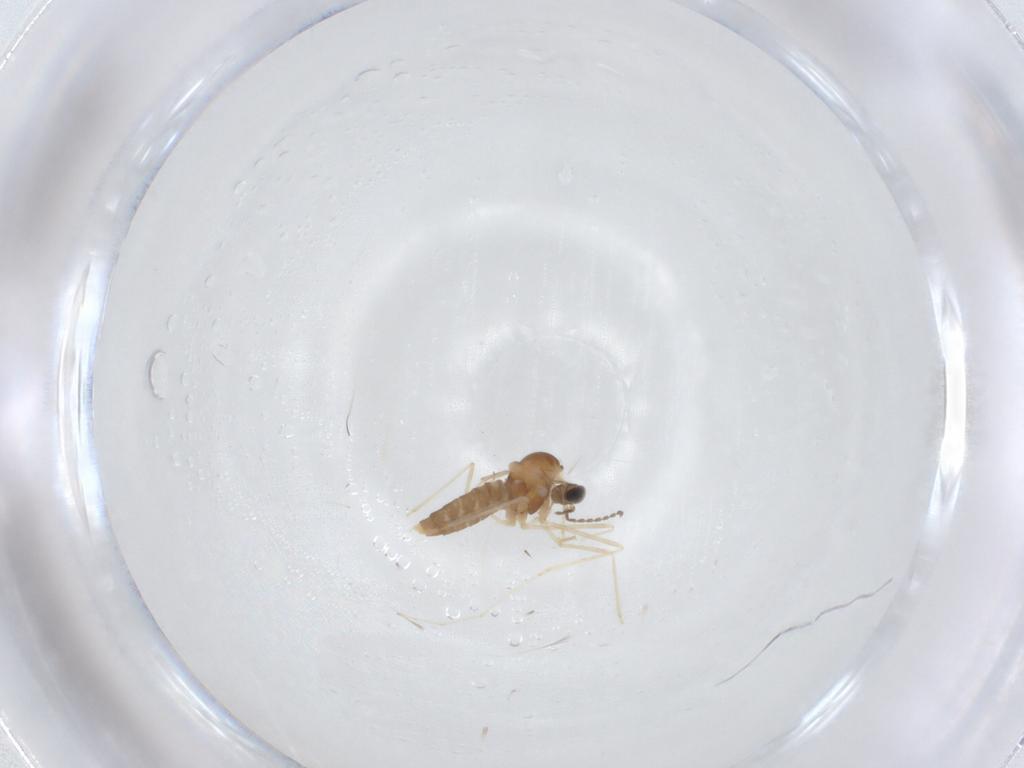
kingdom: Animalia
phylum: Arthropoda
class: Insecta
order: Diptera
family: Cecidomyiidae
